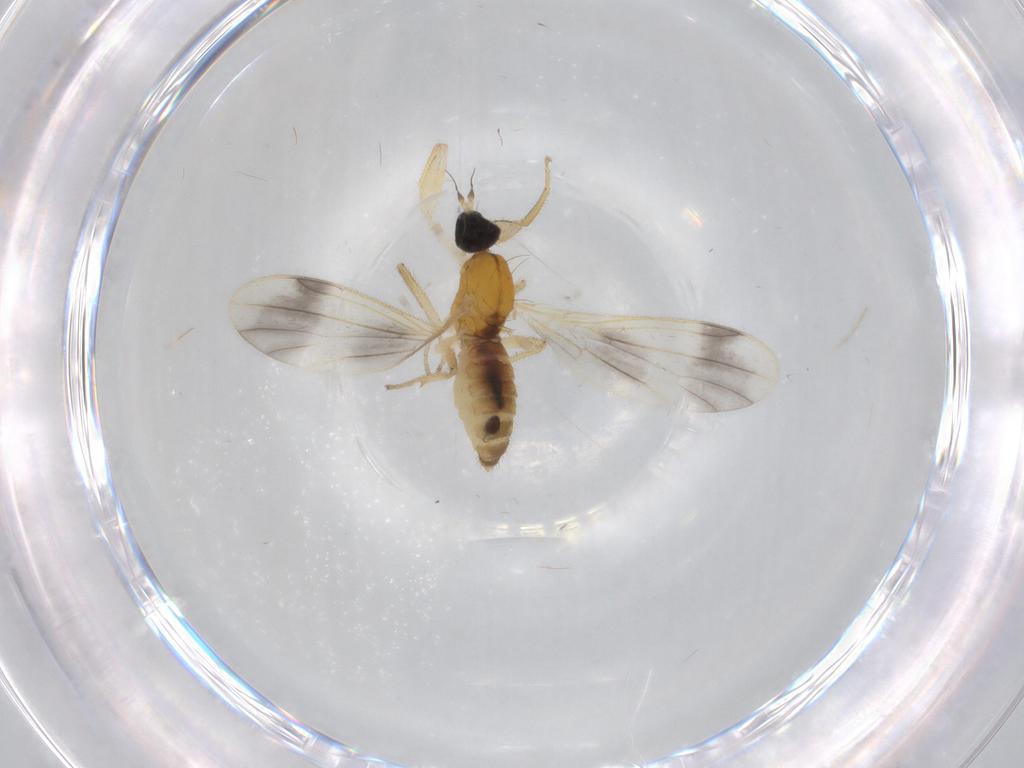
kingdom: Animalia
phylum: Arthropoda
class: Insecta
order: Diptera
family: Empididae
